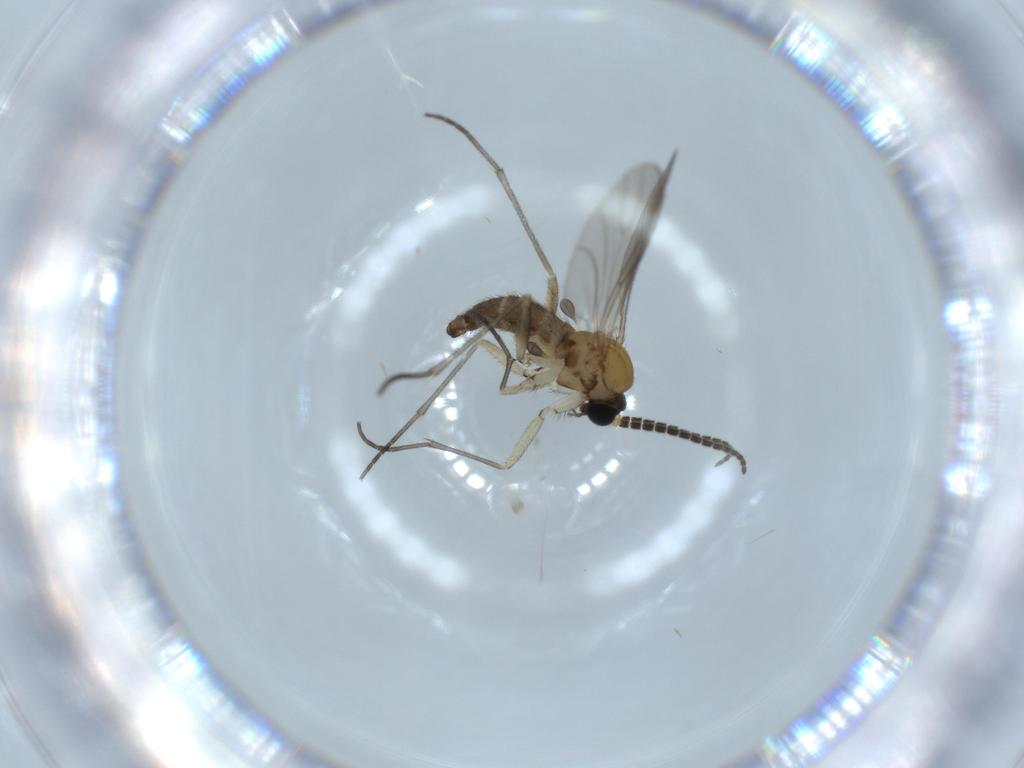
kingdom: Animalia
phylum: Arthropoda
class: Insecta
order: Diptera
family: Sciaridae
